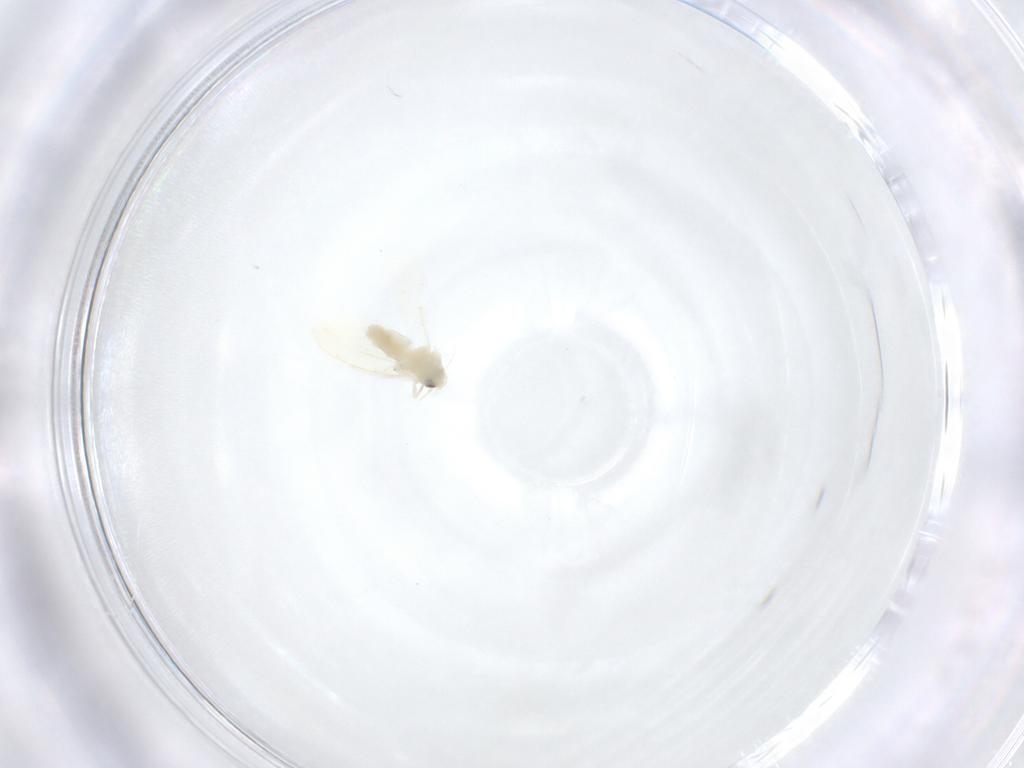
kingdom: Animalia
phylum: Arthropoda
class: Insecta
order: Hemiptera
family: Aleyrodidae
